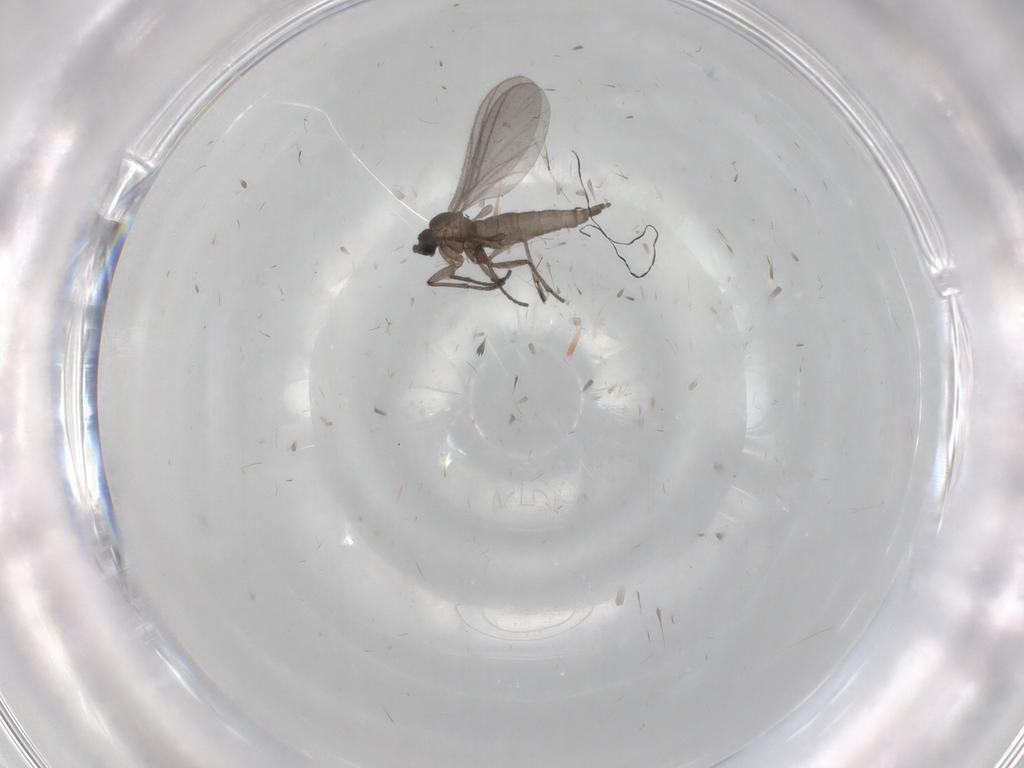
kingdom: Animalia
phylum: Arthropoda
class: Insecta
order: Diptera
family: Sciaridae
